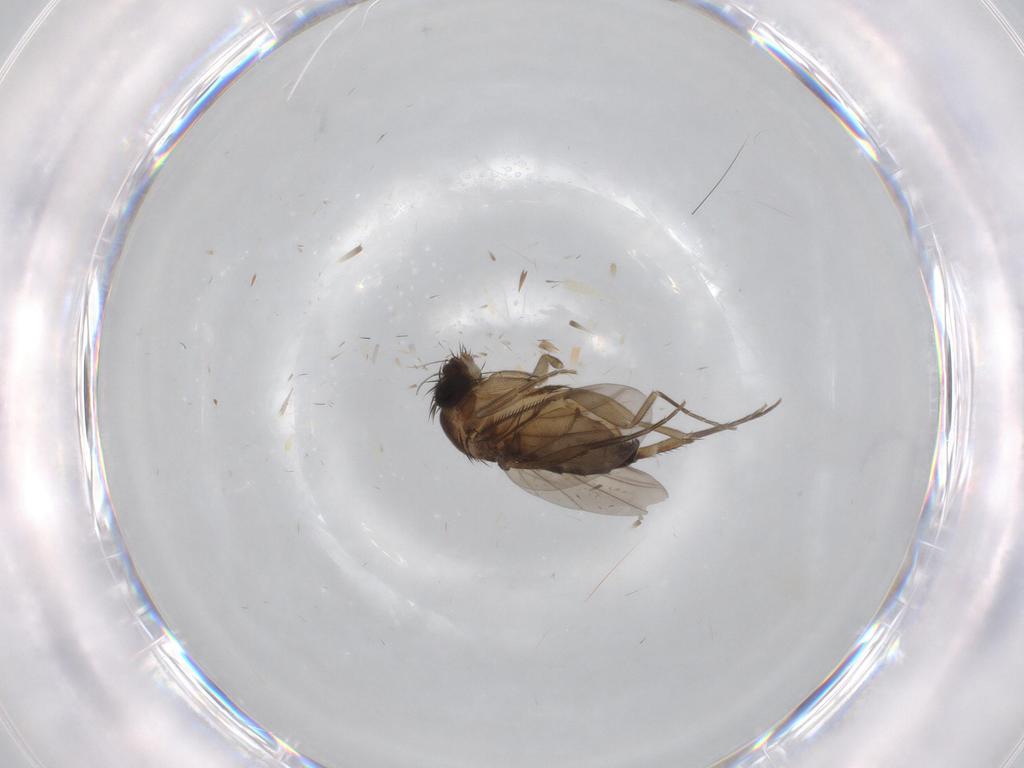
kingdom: Animalia
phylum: Arthropoda
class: Insecta
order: Diptera
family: Phoridae
